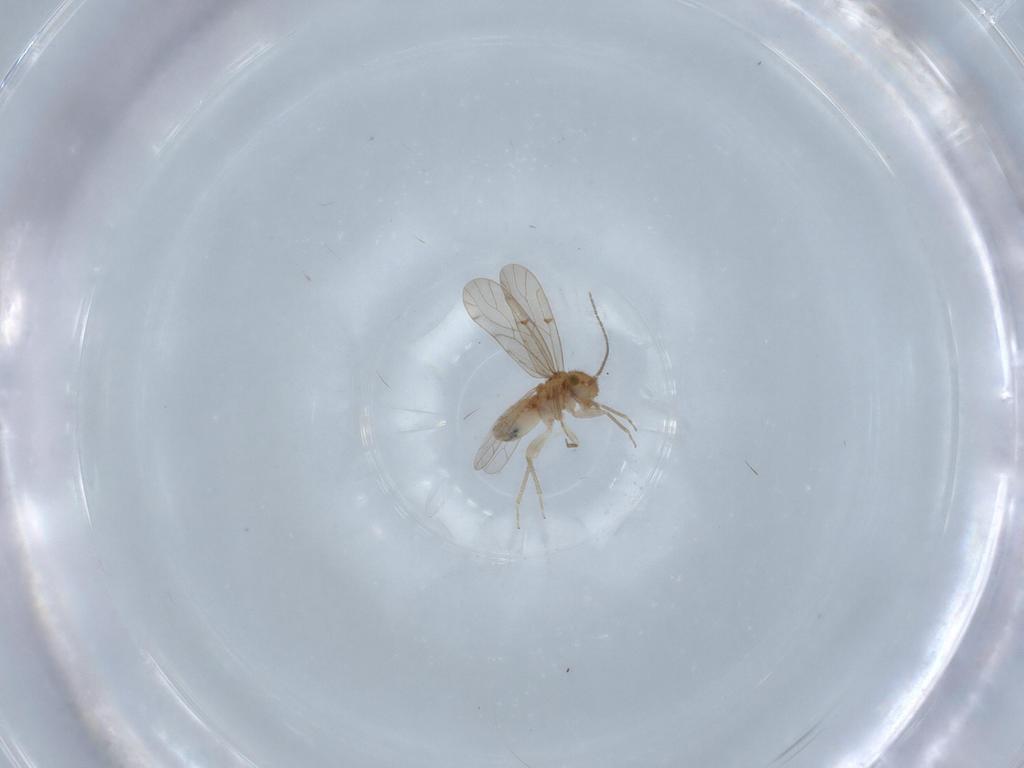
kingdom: Animalia
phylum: Arthropoda
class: Insecta
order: Psocodea
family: Ectopsocidae
